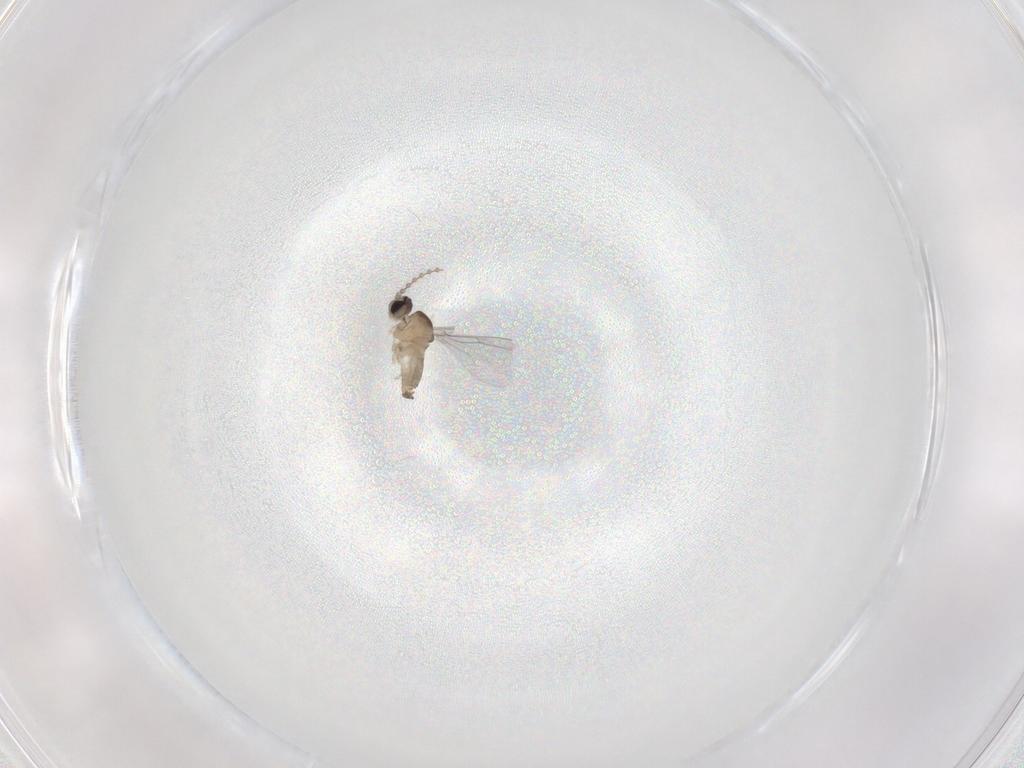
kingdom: Animalia
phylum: Arthropoda
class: Insecta
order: Diptera
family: Cecidomyiidae
